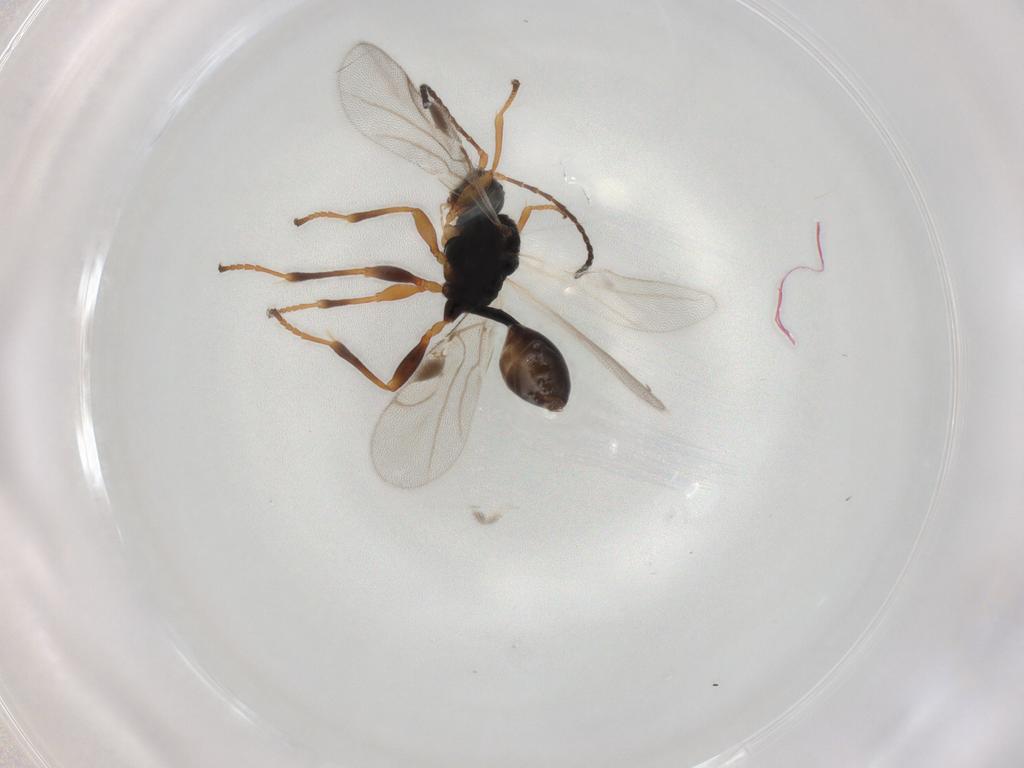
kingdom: Animalia
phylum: Arthropoda
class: Insecta
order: Hymenoptera
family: Braconidae
